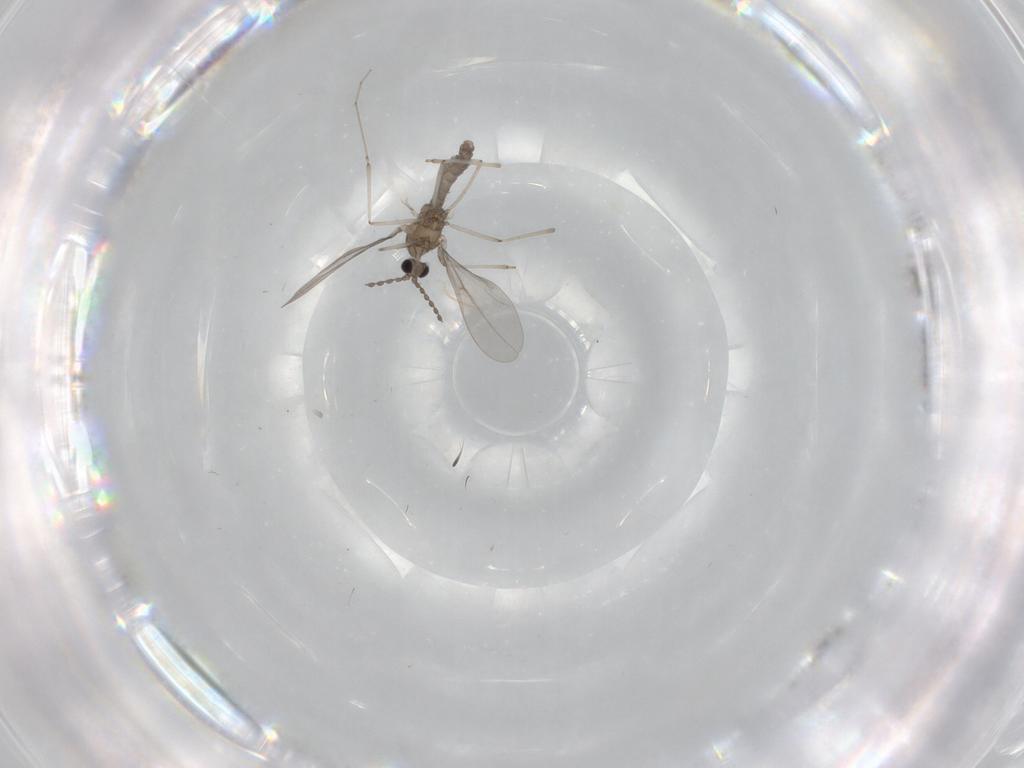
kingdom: Animalia
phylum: Arthropoda
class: Insecta
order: Diptera
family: Cecidomyiidae
